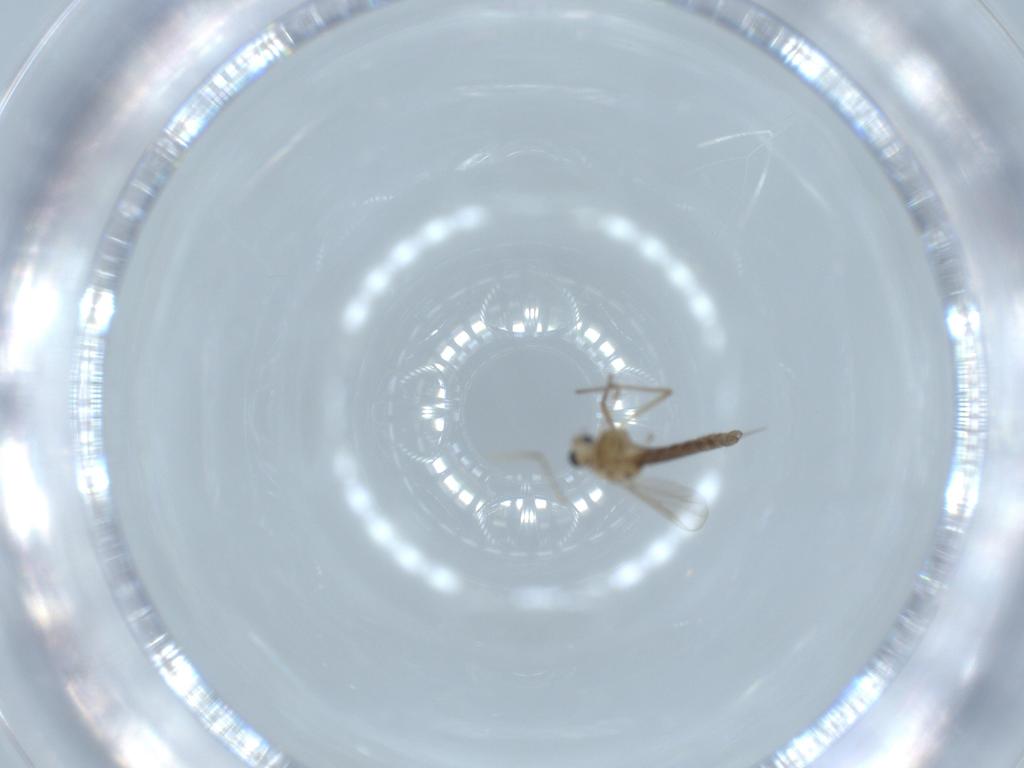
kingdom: Animalia
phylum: Arthropoda
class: Insecta
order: Diptera
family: Chironomidae
